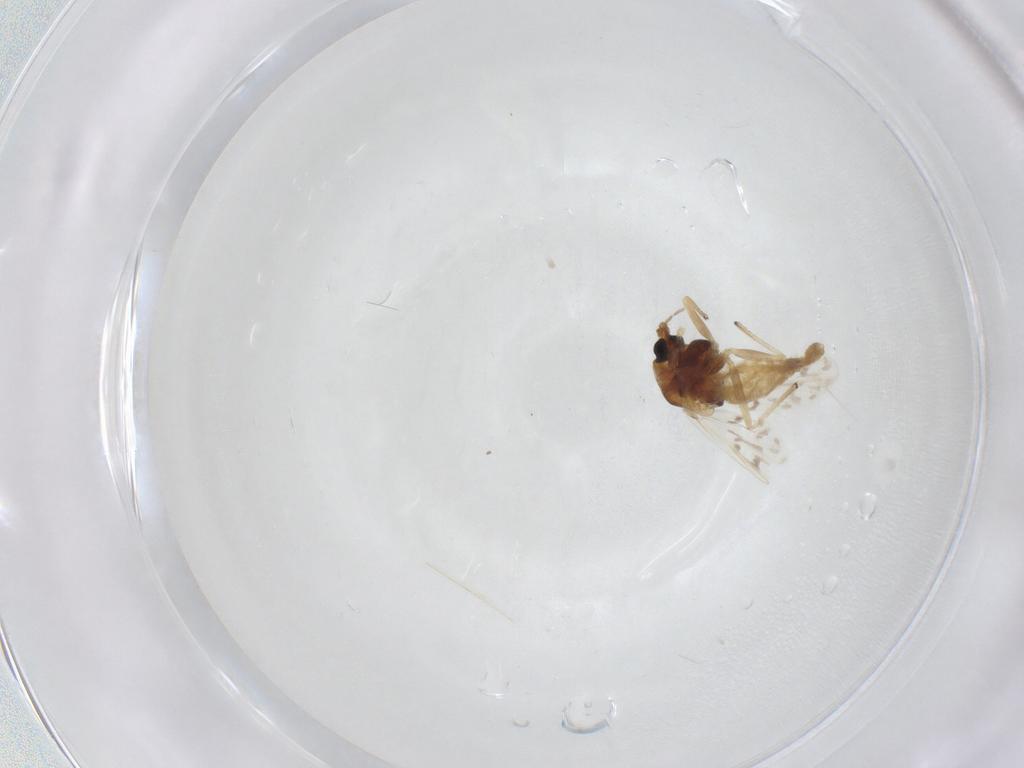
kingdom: Animalia
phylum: Arthropoda
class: Insecta
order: Diptera
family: Chironomidae
